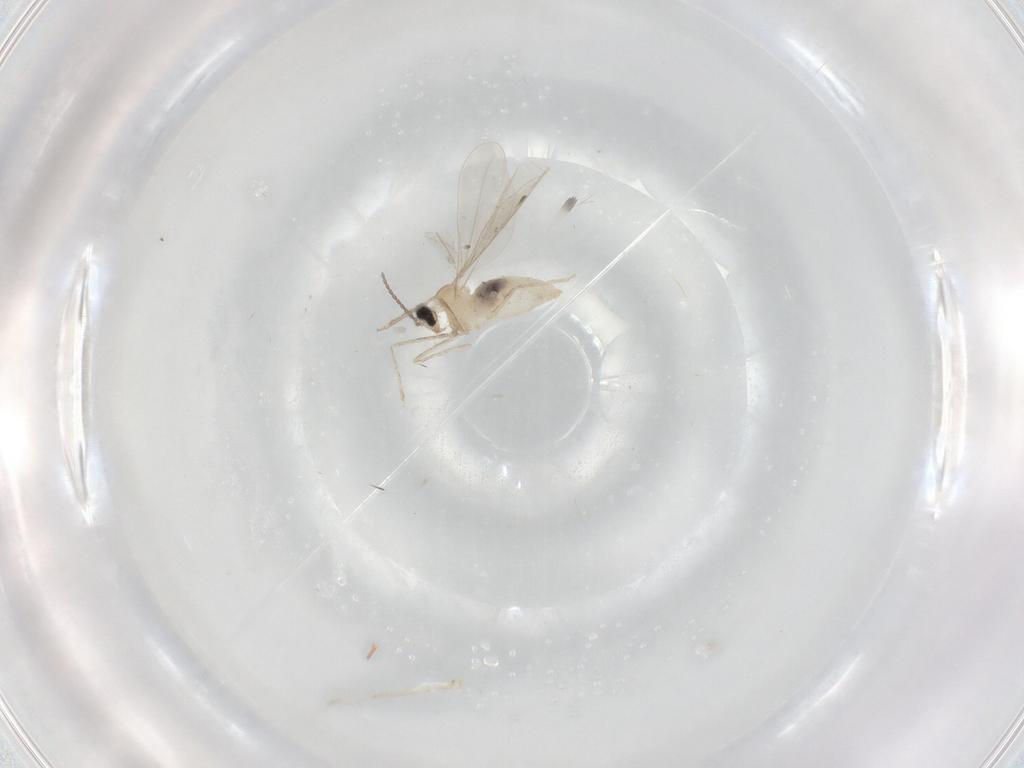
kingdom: Animalia
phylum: Arthropoda
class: Insecta
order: Diptera
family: Cecidomyiidae
